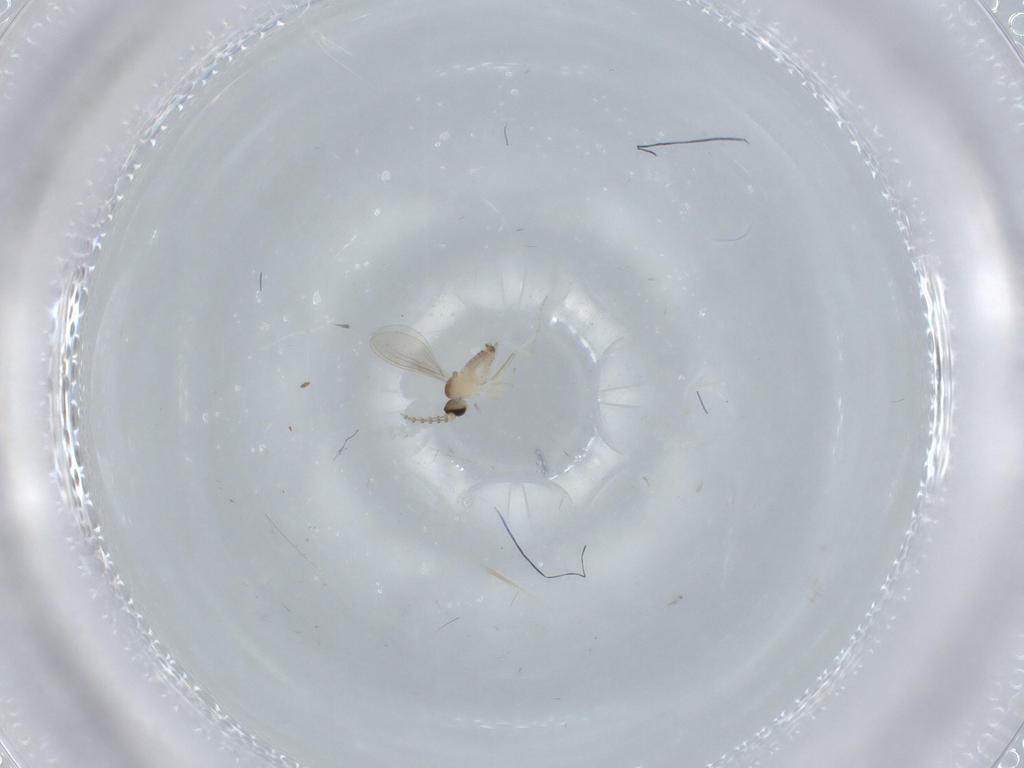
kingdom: Animalia
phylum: Arthropoda
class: Insecta
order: Diptera
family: Cecidomyiidae
